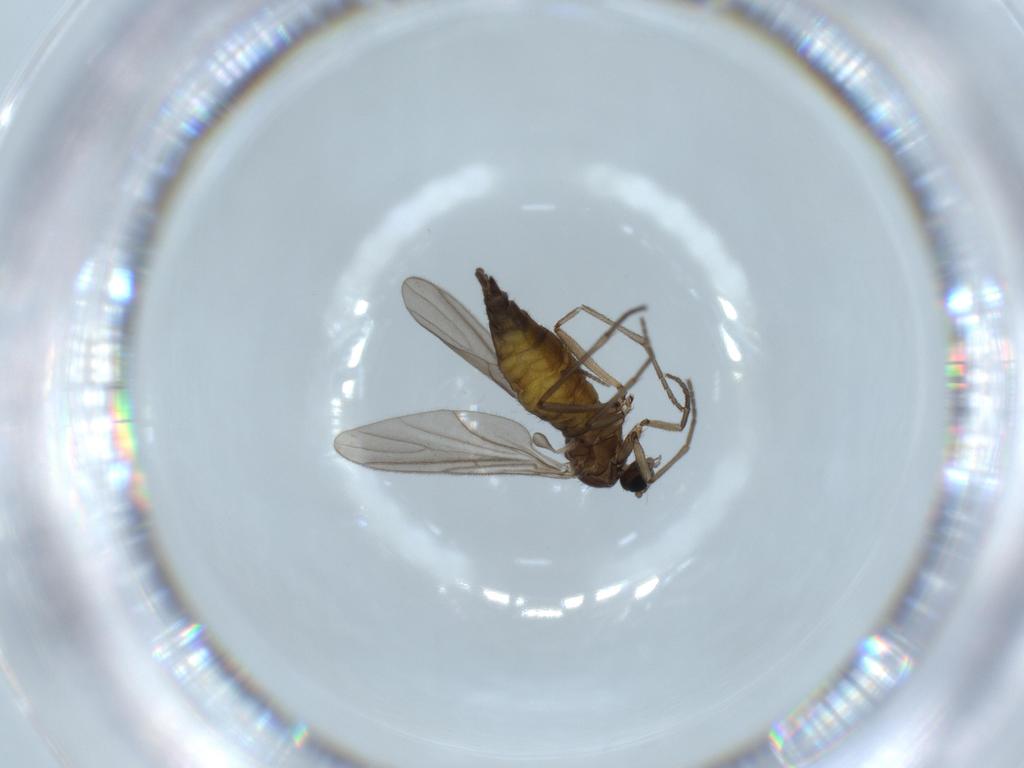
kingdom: Animalia
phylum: Arthropoda
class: Insecta
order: Diptera
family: Sciaridae
